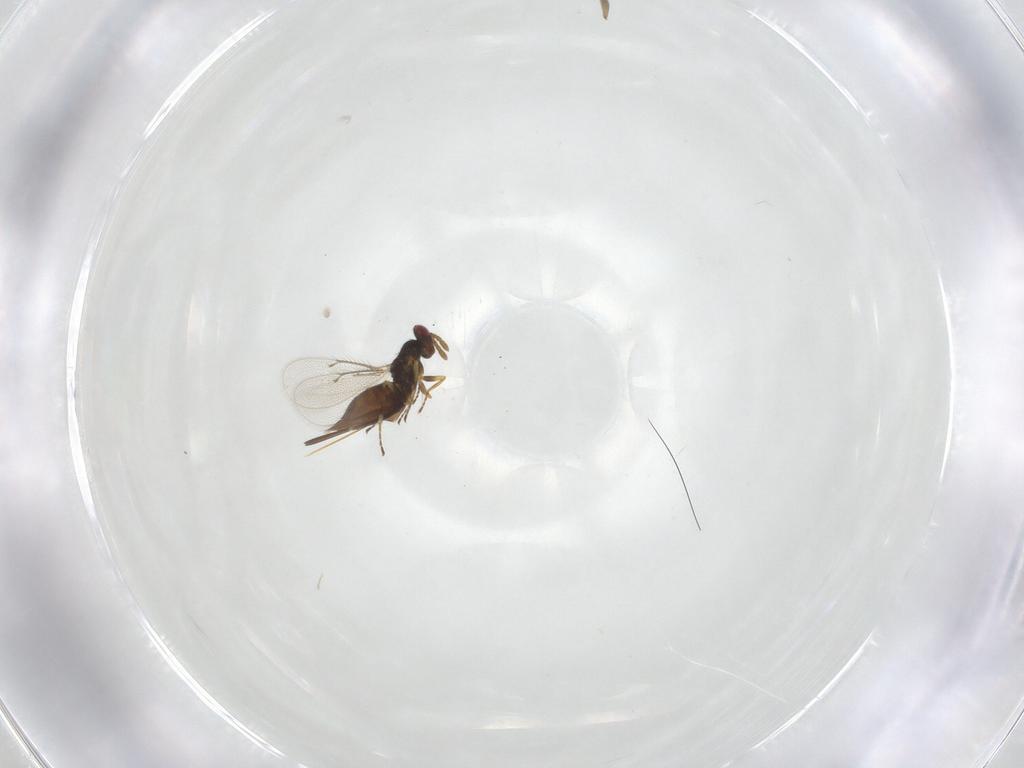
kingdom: Animalia
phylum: Arthropoda
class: Insecta
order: Hymenoptera
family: Eulophidae
